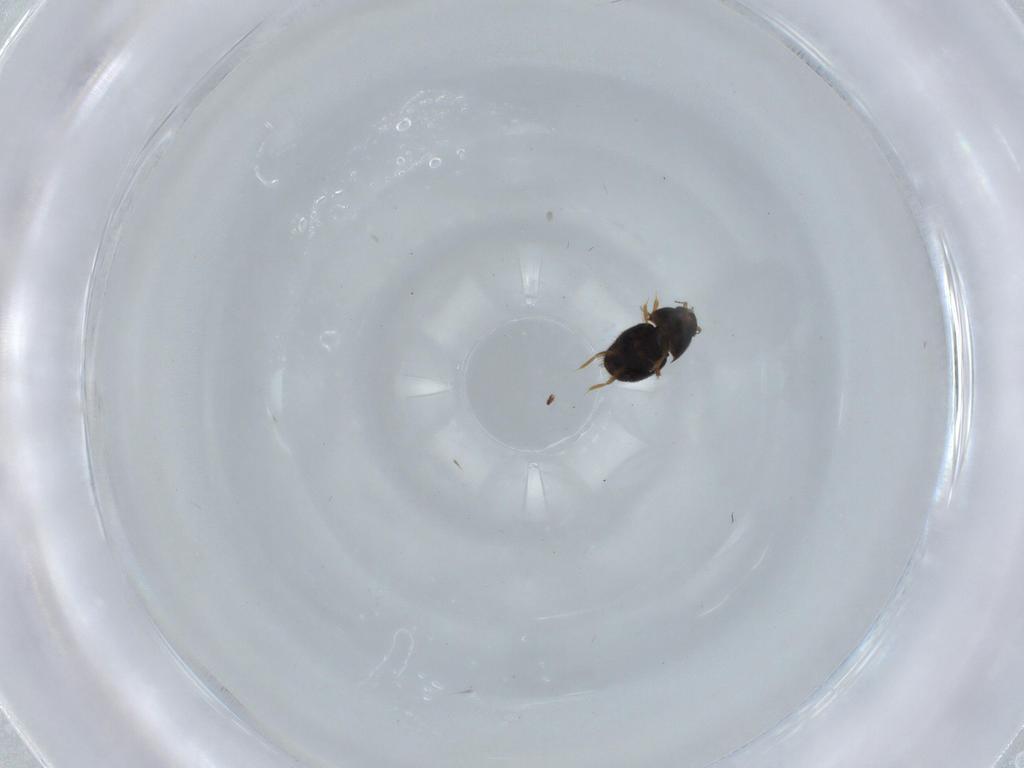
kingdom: Animalia
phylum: Arthropoda
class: Insecta
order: Coleoptera
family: Ptiliidae
